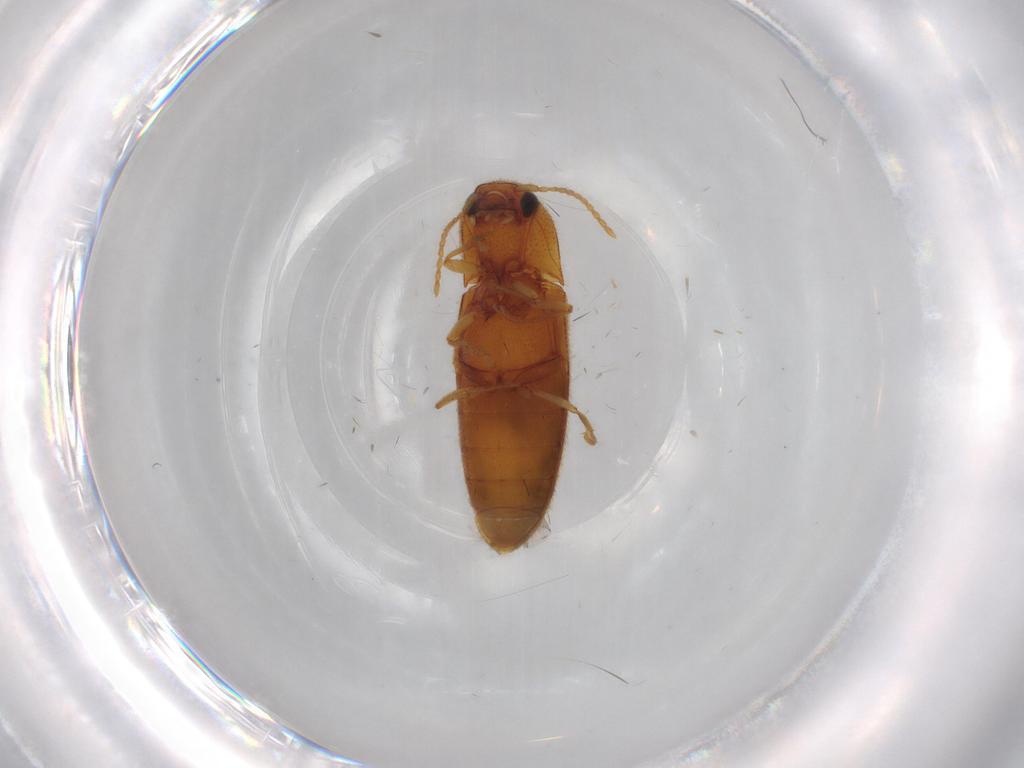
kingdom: Animalia
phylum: Arthropoda
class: Insecta
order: Coleoptera
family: Elateridae
